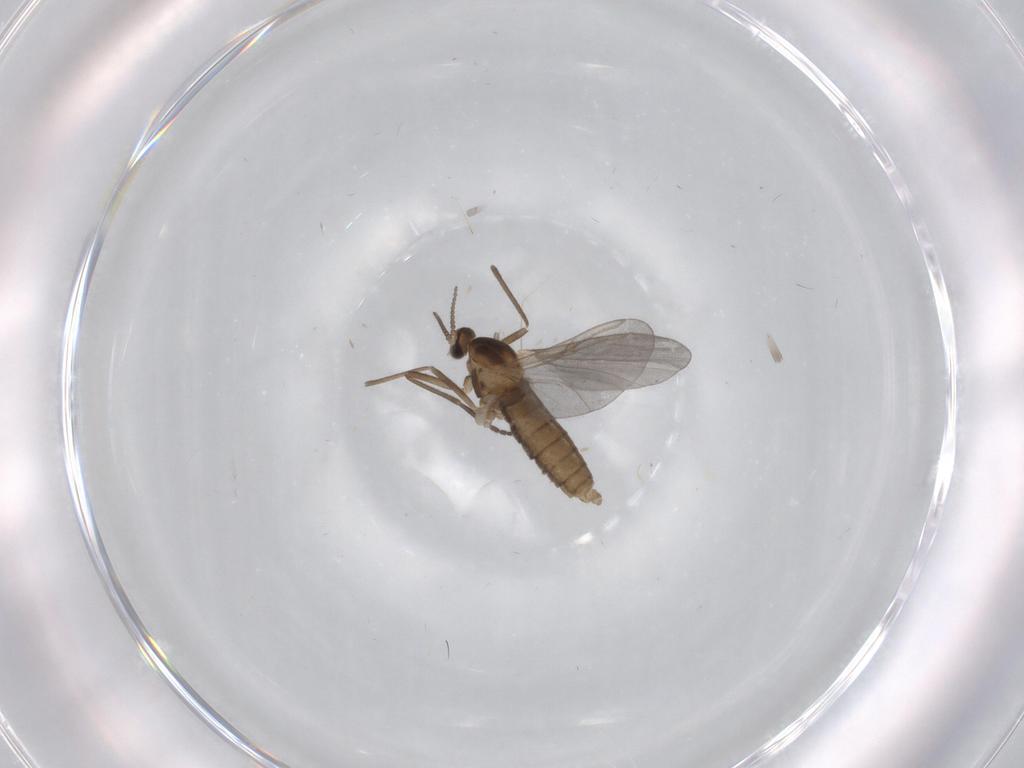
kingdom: Animalia
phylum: Arthropoda
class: Insecta
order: Diptera
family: Cecidomyiidae
